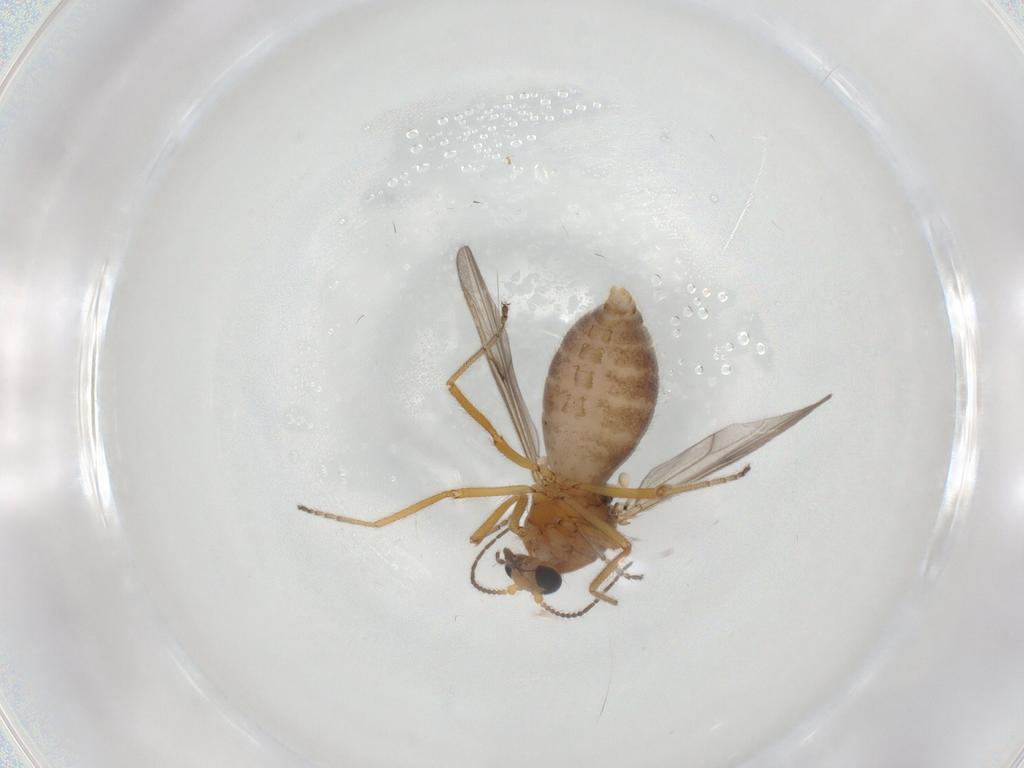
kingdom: Animalia
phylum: Arthropoda
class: Insecta
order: Diptera
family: Ceratopogonidae
